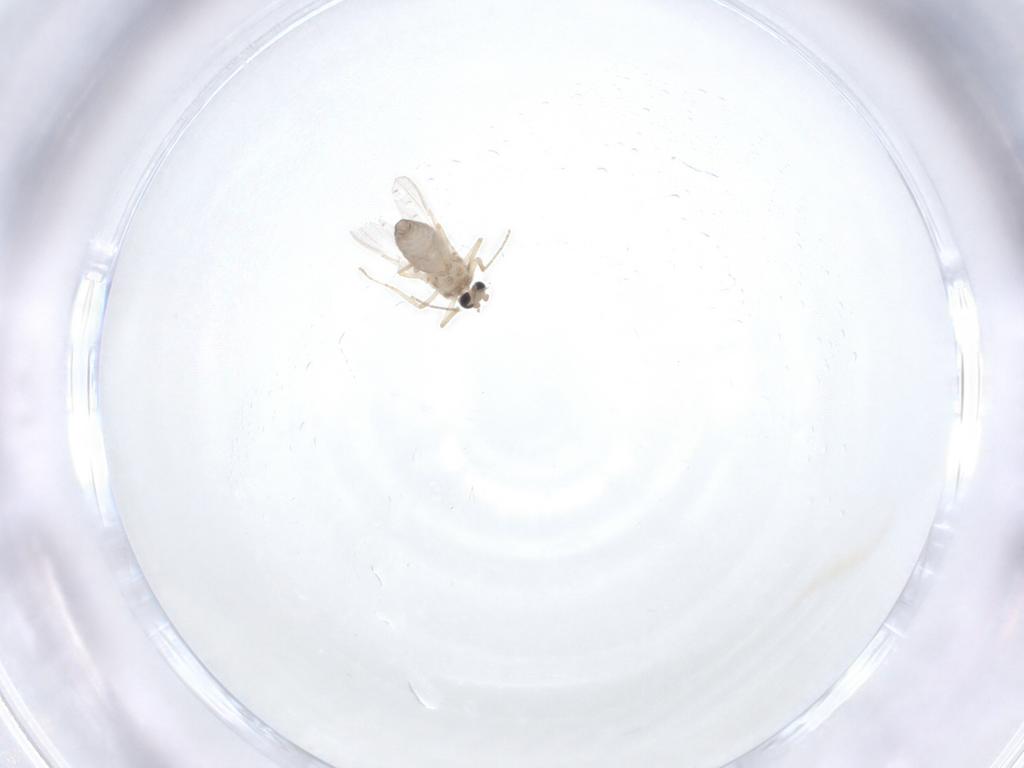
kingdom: Animalia
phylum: Arthropoda
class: Insecta
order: Diptera
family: Ceratopogonidae
